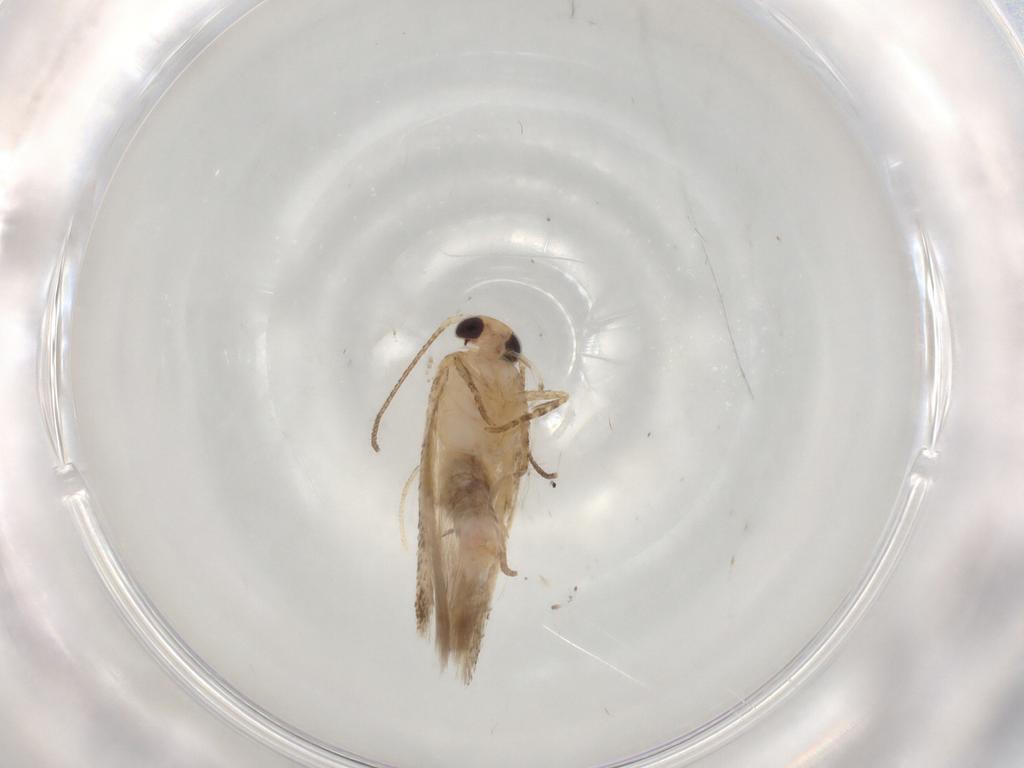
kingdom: Animalia
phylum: Arthropoda
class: Insecta
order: Lepidoptera
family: Gelechiidae
